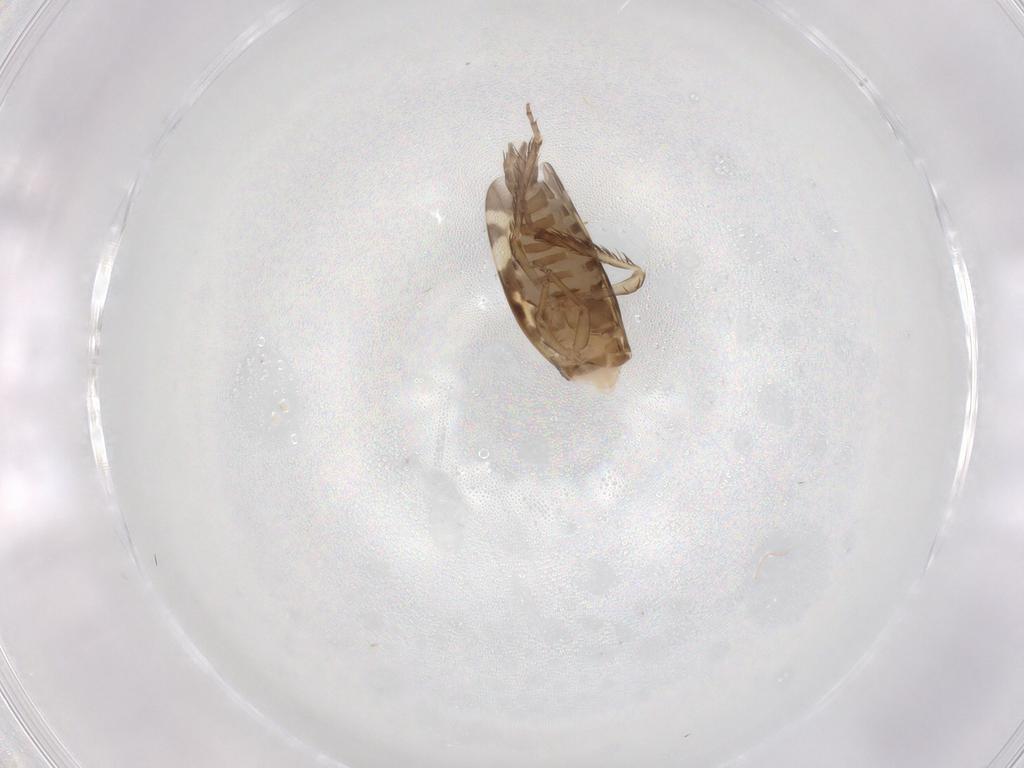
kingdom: Animalia
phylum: Arthropoda
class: Insecta
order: Hemiptera
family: Cicadellidae
